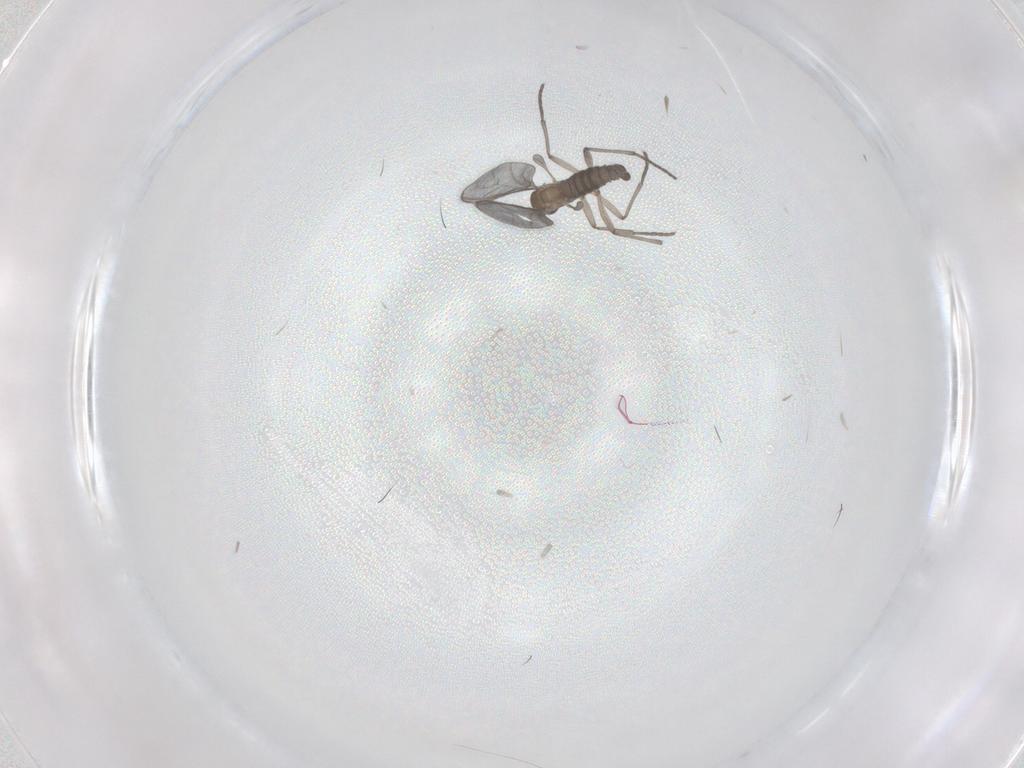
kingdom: Animalia
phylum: Arthropoda
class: Insecta
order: Diptera
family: Sciaridae
